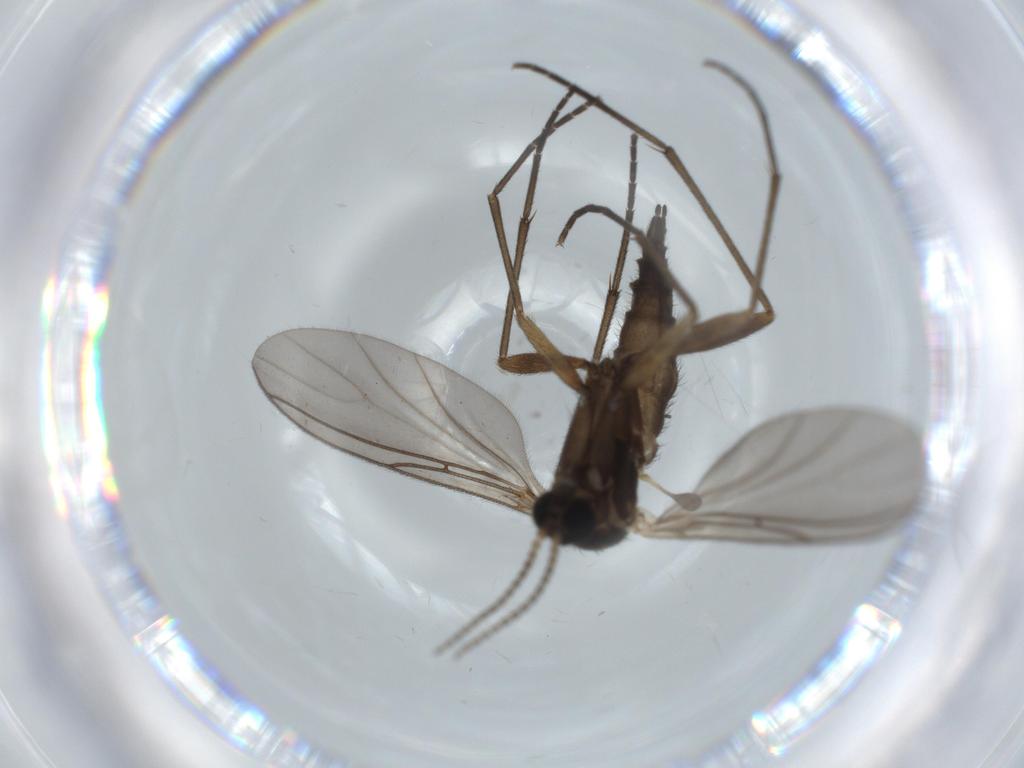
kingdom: Animalia
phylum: Arthropoda
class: Insecta
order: Diptera
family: Sciaridae
